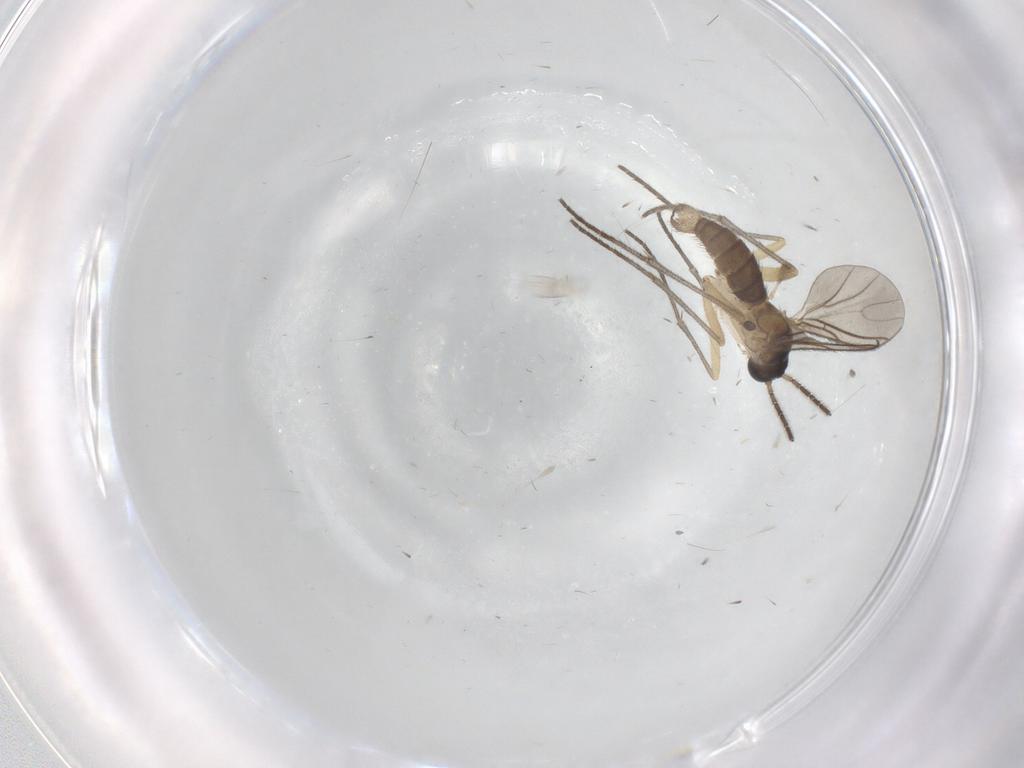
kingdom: Animalia
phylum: Arthropoda
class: Insecta
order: Diptera
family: Sciaridae
